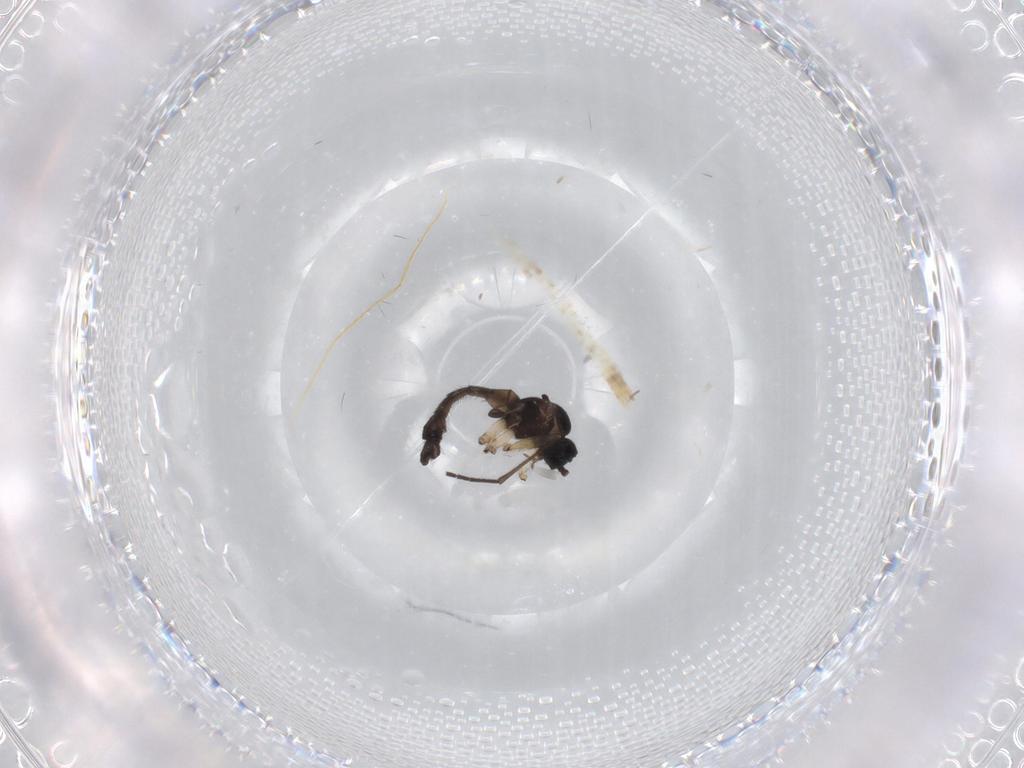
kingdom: Animalia
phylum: Arthropoda
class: Insecta
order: Diptera
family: Sciaridae
